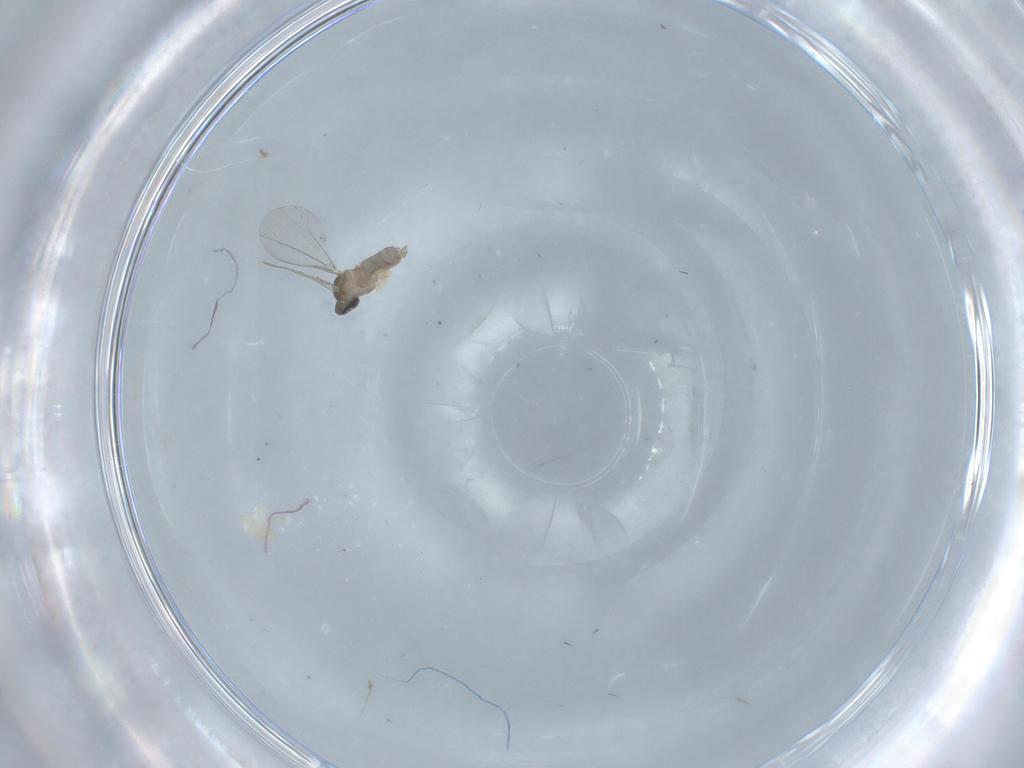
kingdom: Animalia
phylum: Arthropoda
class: Insecta
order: Diptera
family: Cecidomyiidae
